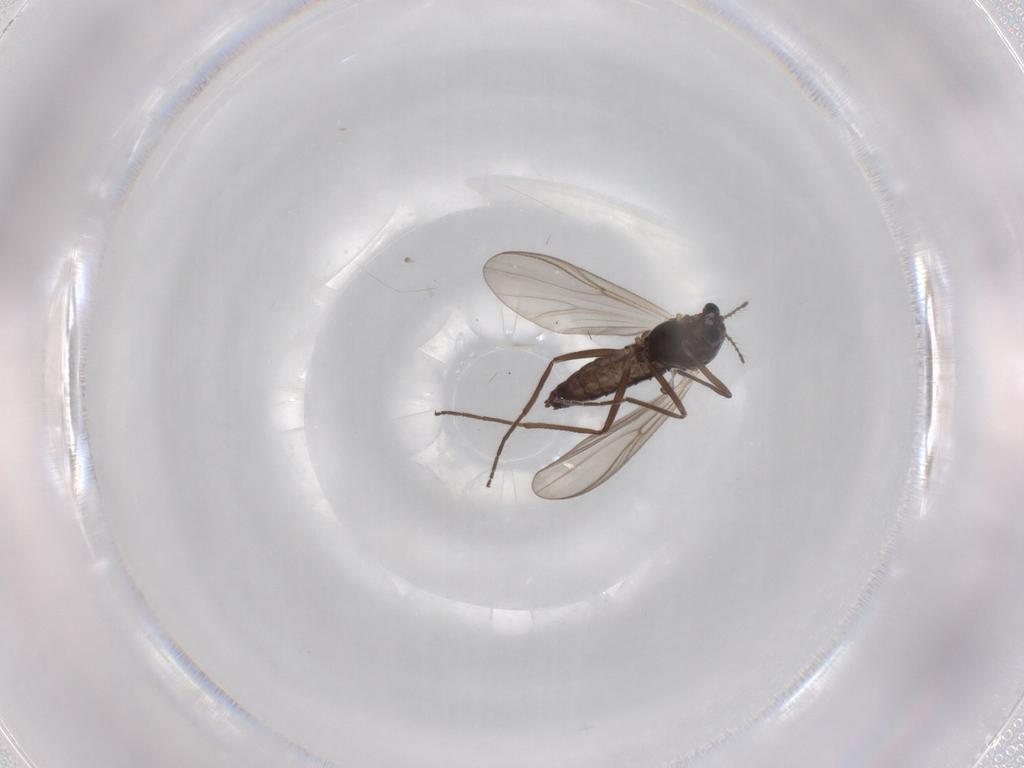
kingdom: Animalia
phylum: Arthropoda
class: Insecta
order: Diptera
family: Chironomidae
